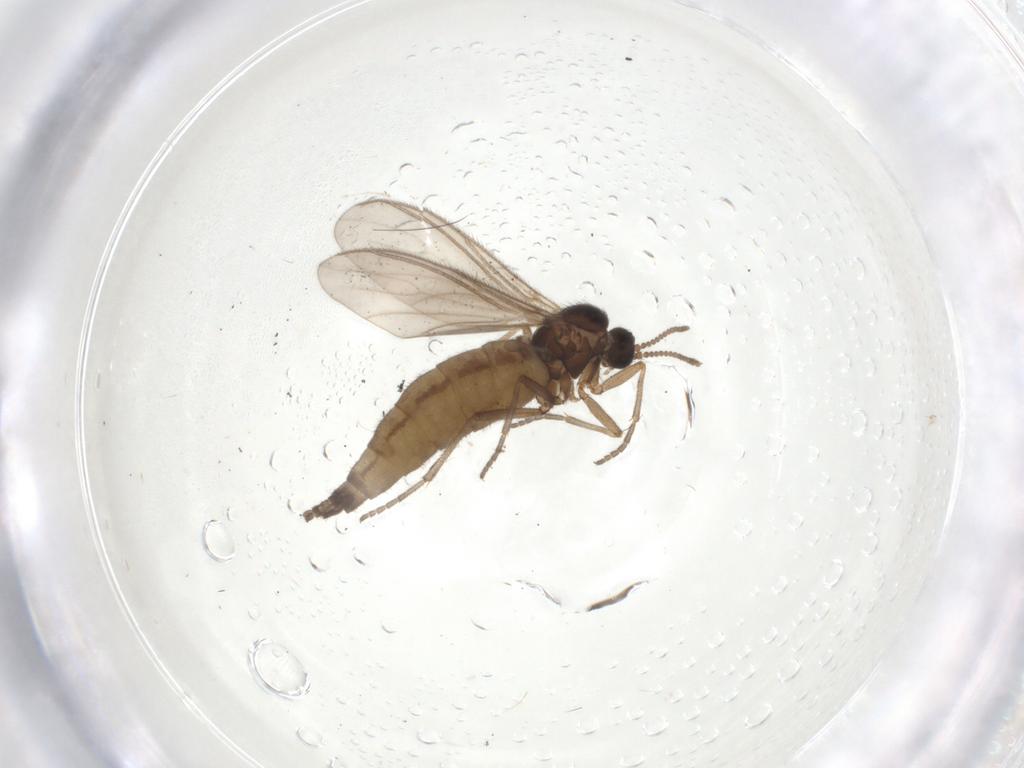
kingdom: Animalia
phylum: Arthropoda
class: Insecta
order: Diptera
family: Sciaridae
